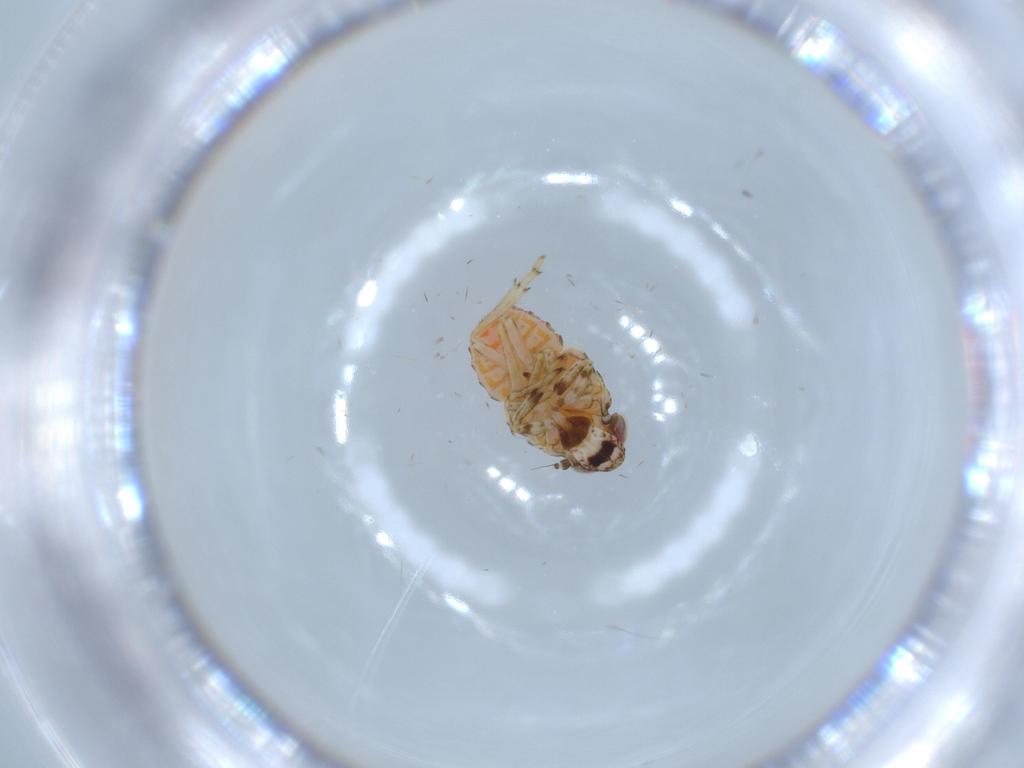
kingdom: Animalia
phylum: Arthropoda
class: Insecta
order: Hemiptera
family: Issidae
